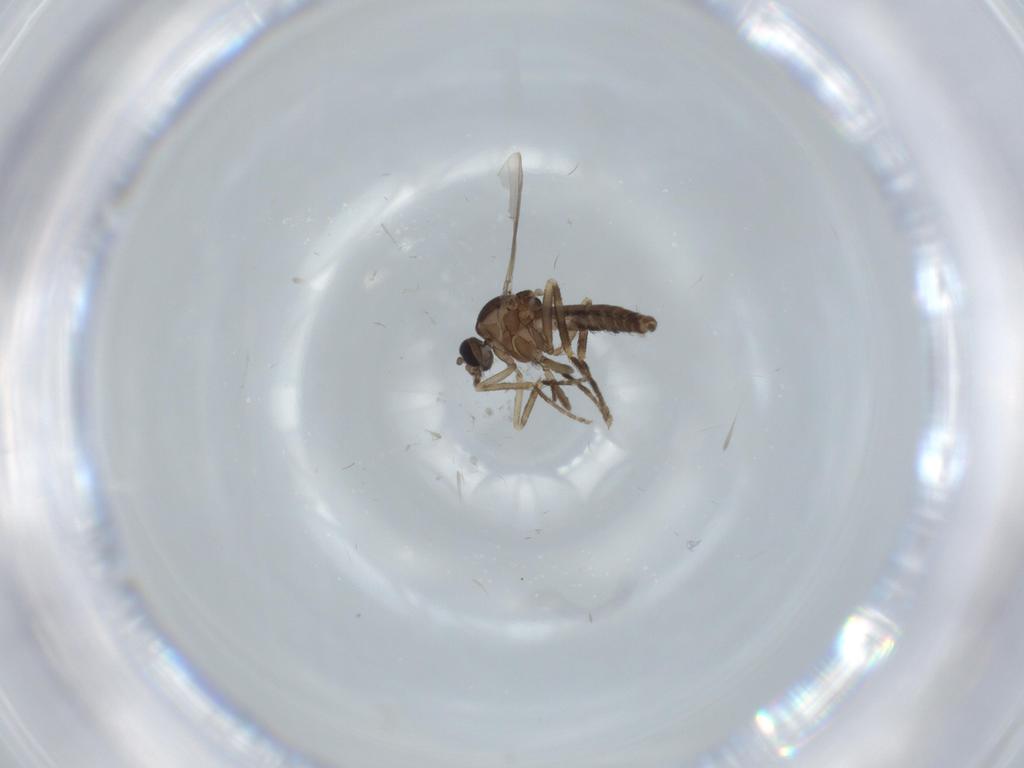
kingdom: Animalia
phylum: Arthropoda
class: Insecta
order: Diptera
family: Ceratopogonidae
